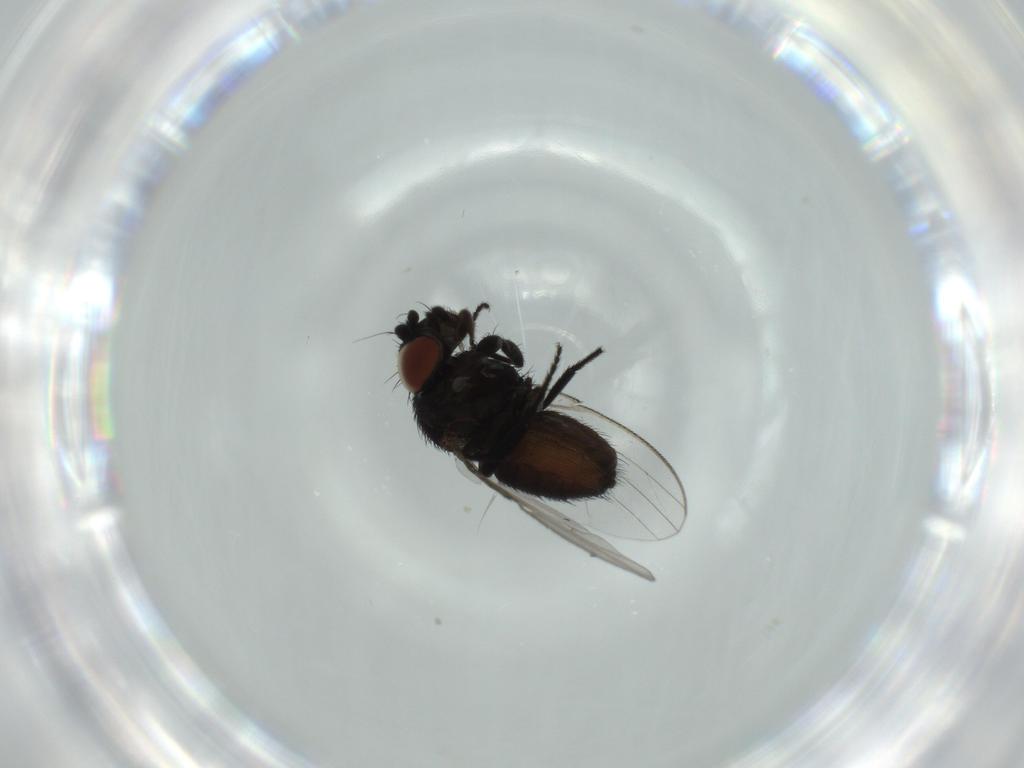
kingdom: Animalia
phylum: Arthropoda
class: Insecta
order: Diptera
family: Milichiidae
